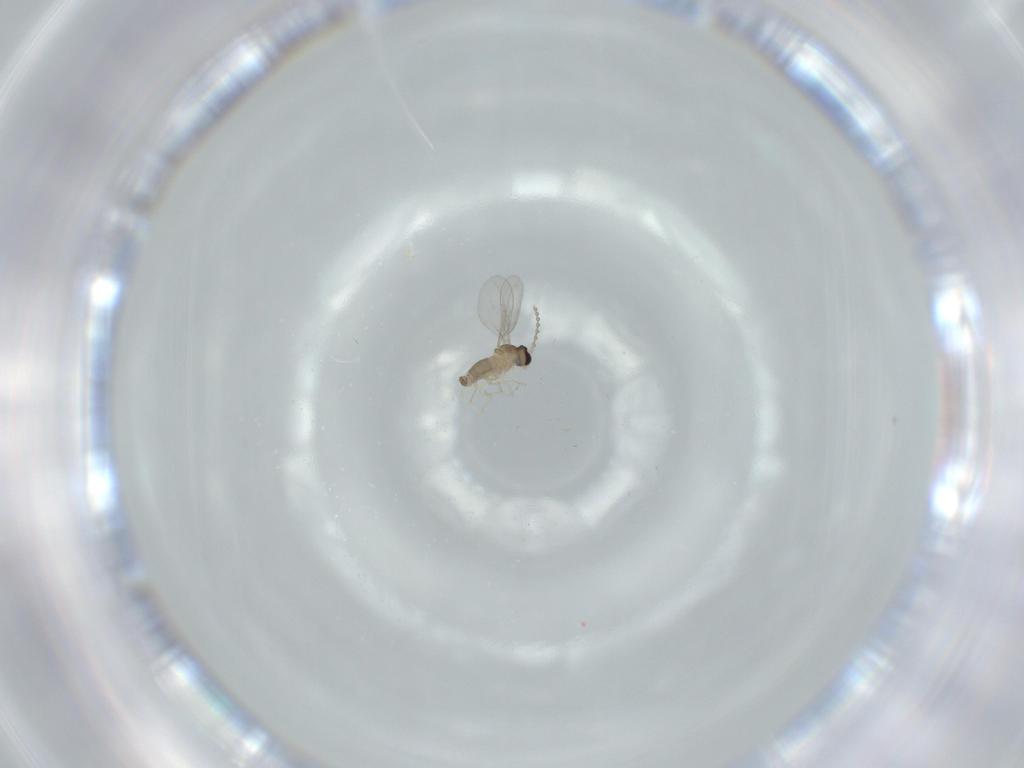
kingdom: Animalia
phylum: Arthropoda
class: Insecta
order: Diptera
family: Cecidomyiidae
